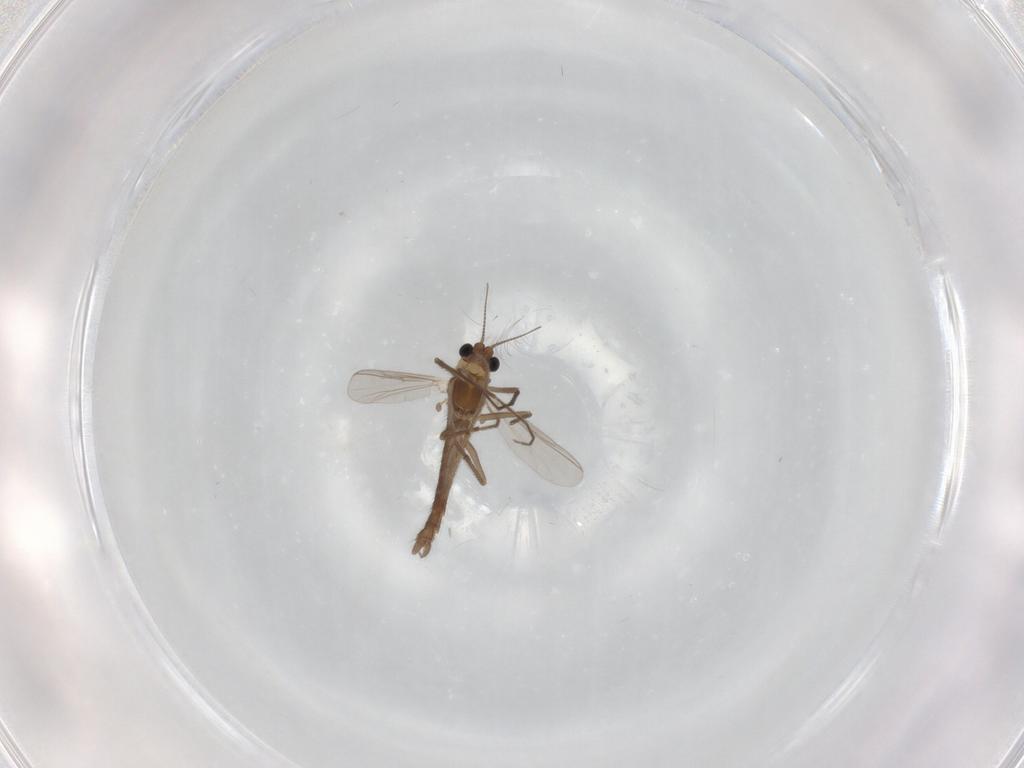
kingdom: Animalia
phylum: Arthropoda
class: Insecta
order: Diptera
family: Chironomidae
